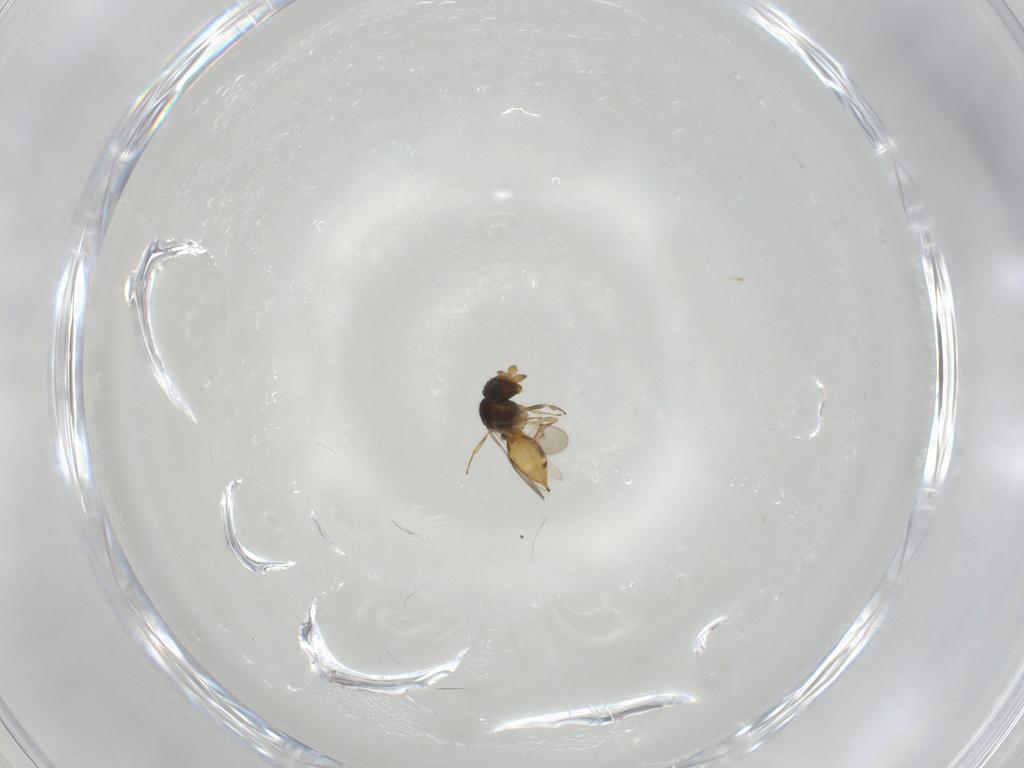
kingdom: Animalia
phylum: Arthropoda
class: Insecta
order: Hymenoptera
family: Scelionidae
